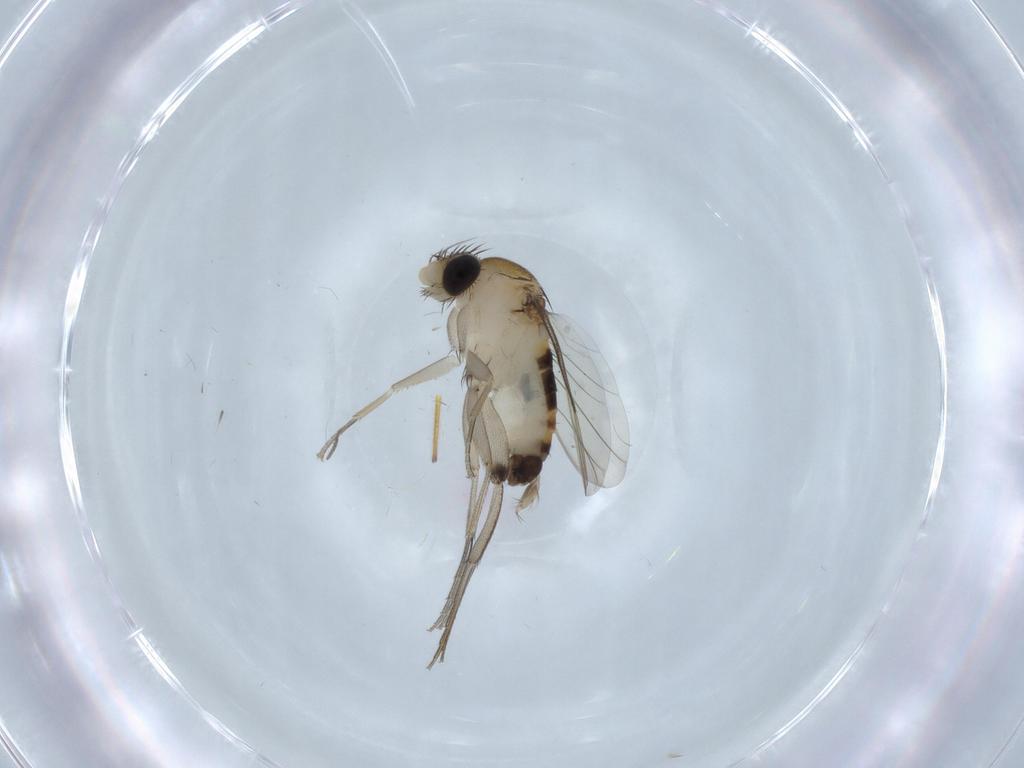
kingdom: Animalia
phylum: Arthropoda
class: Insecta
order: Diptera
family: Phoridae
